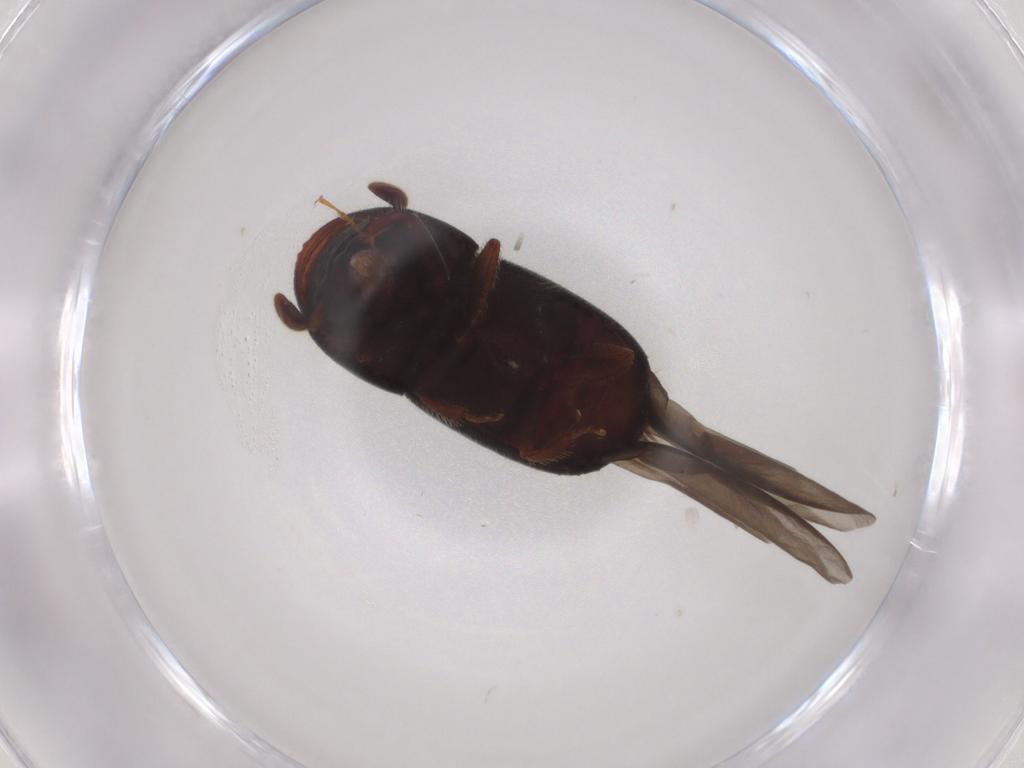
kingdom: Animalia
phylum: Arthropoda
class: Insecta
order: Coleoptera
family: Curculionidae
